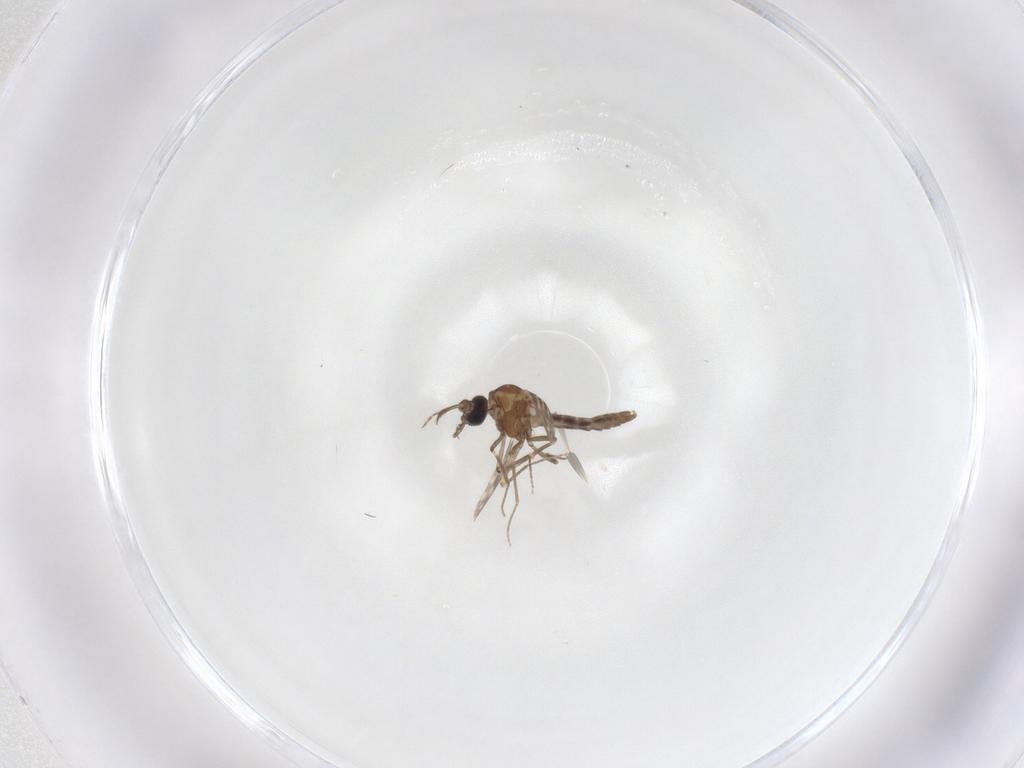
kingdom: Animalia
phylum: Arthropoda
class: Insecta
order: Diptera
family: Ceratopogonidae
